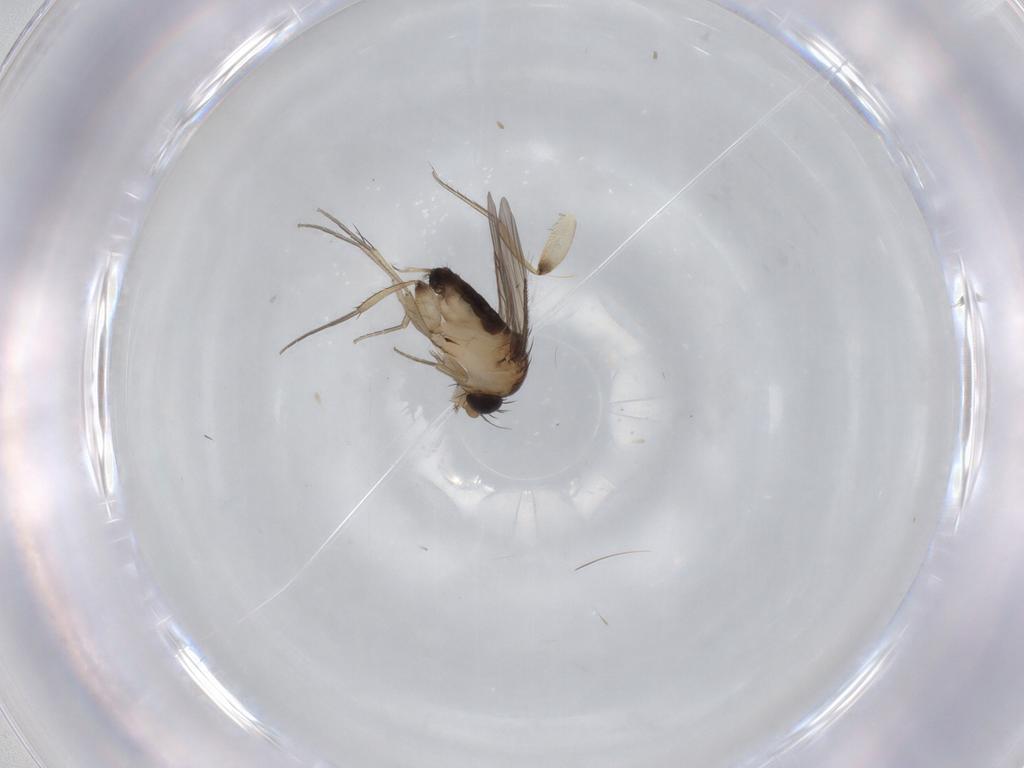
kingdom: Animalia
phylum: Arthropoda
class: Insecta
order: Diptera
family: Phoridae
